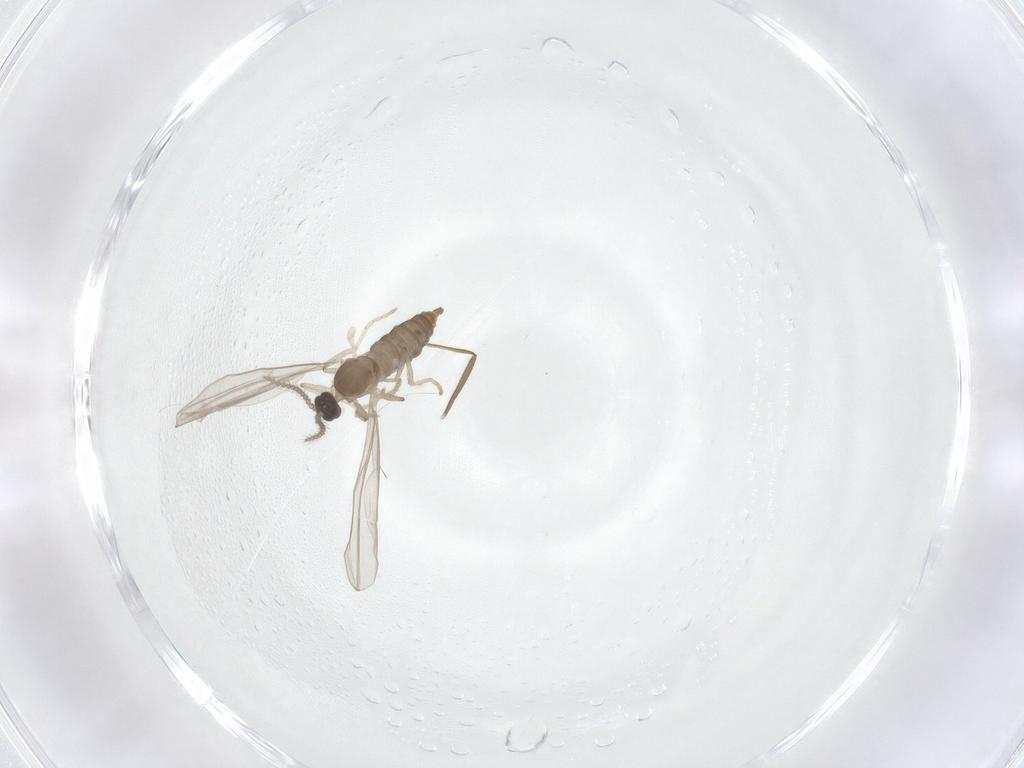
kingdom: Animalia
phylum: Arthropoda
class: Insecta
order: Diptera
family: Chironomidae
